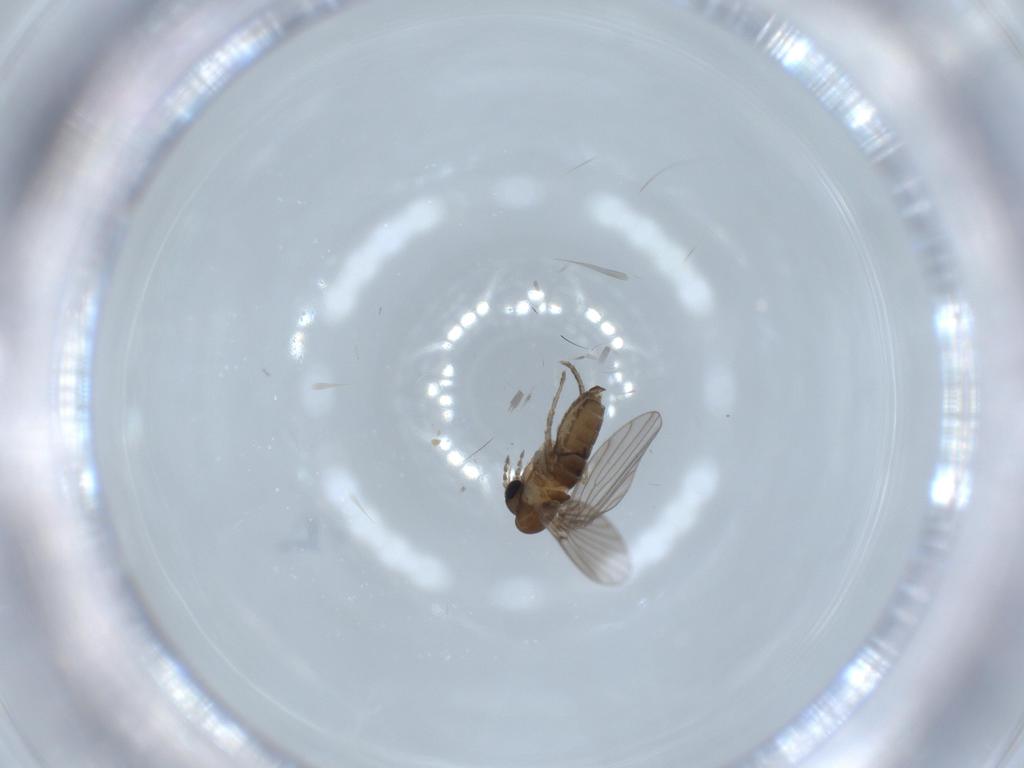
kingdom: Animalia
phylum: Arthropoda
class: Insecta
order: Diptera
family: Psychodidae
